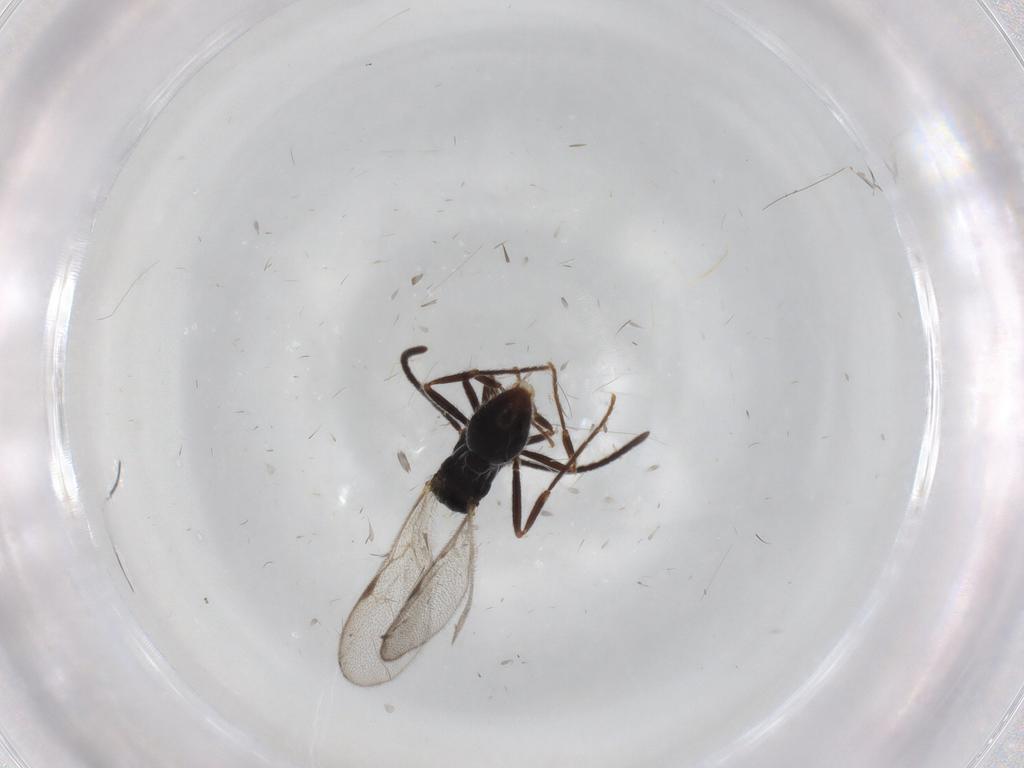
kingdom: Animalia
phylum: Arthropoda
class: Insecta
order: Hymenoptera
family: Formicidae
